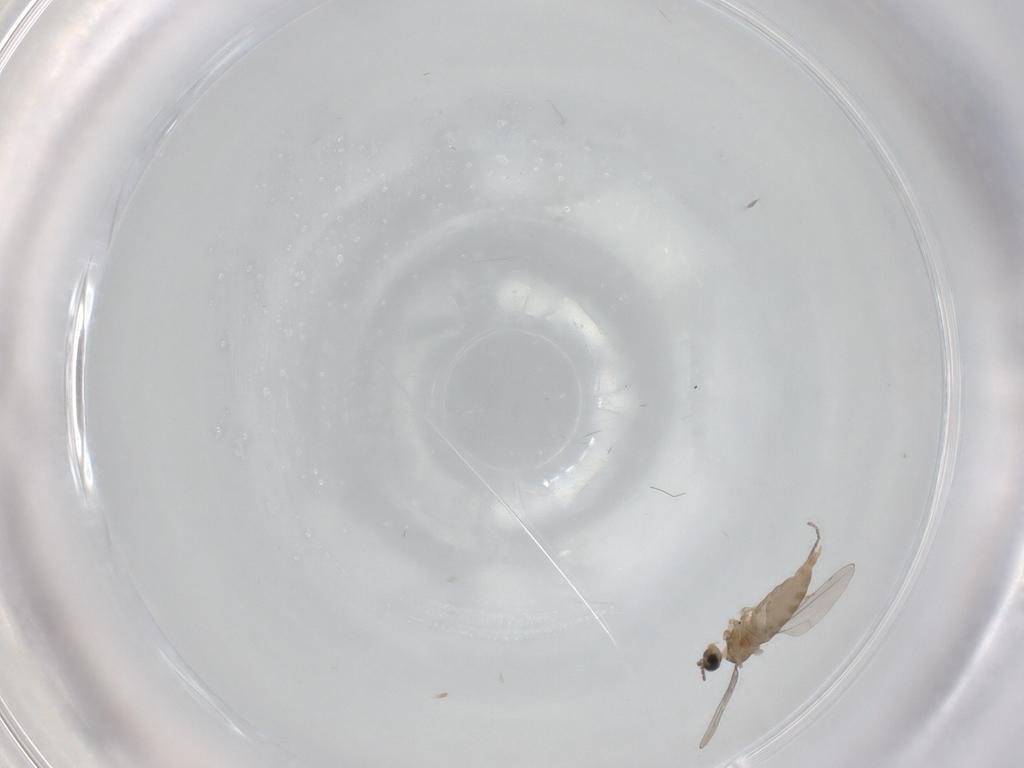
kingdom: Animalia
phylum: Arthropoda
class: Insecta
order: Diptera
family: Cecidomyiidae
